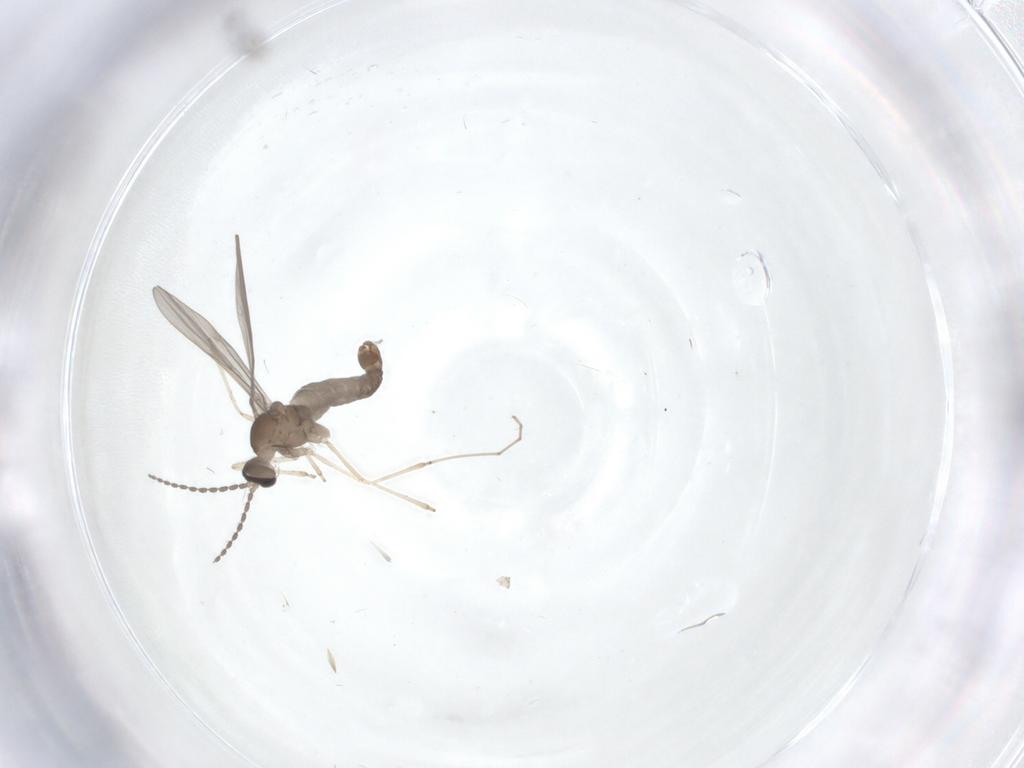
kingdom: Animalia
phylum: Arthropoda
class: Insecta
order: Diptera
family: Cecidomyiidae
